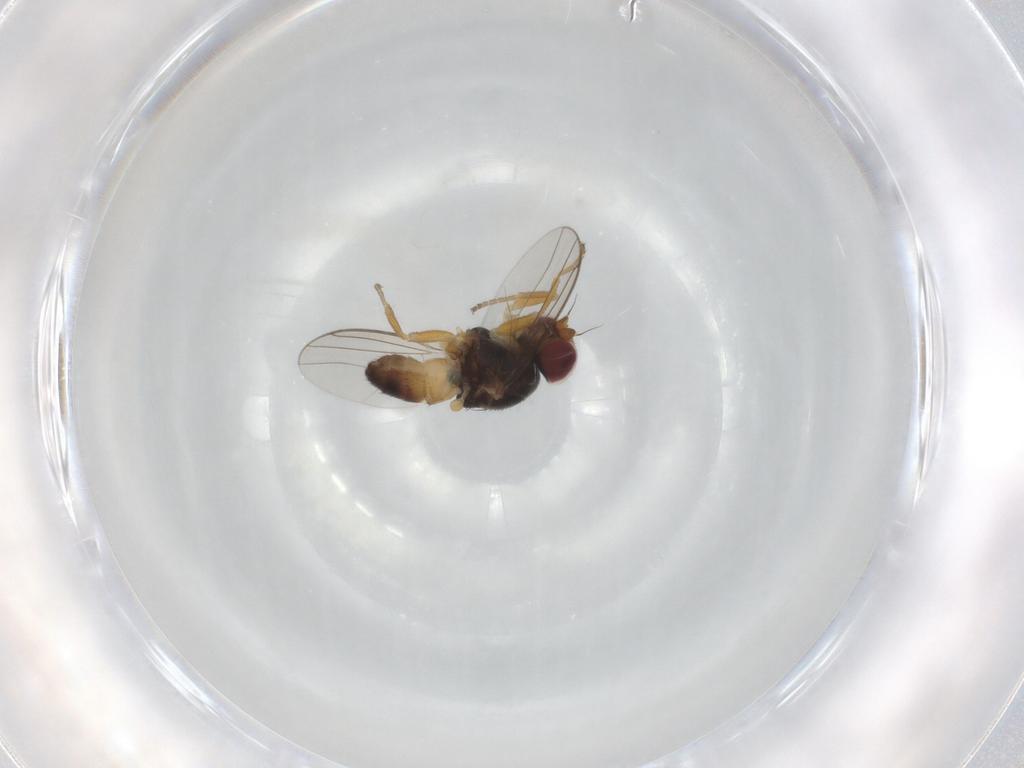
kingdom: Animalia
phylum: Arthropoda
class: Insecta
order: Diptera
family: Chloropidae
